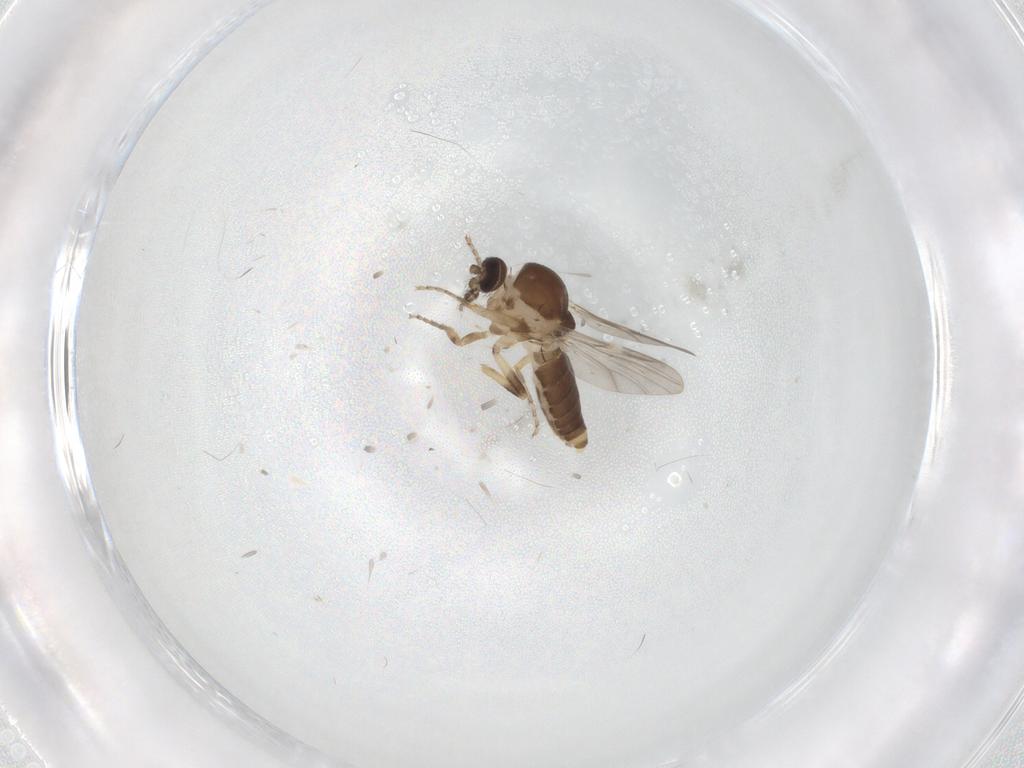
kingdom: Animalia
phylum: Arthropoda
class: Insecta
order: Diptera
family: Ceratopogonidae
